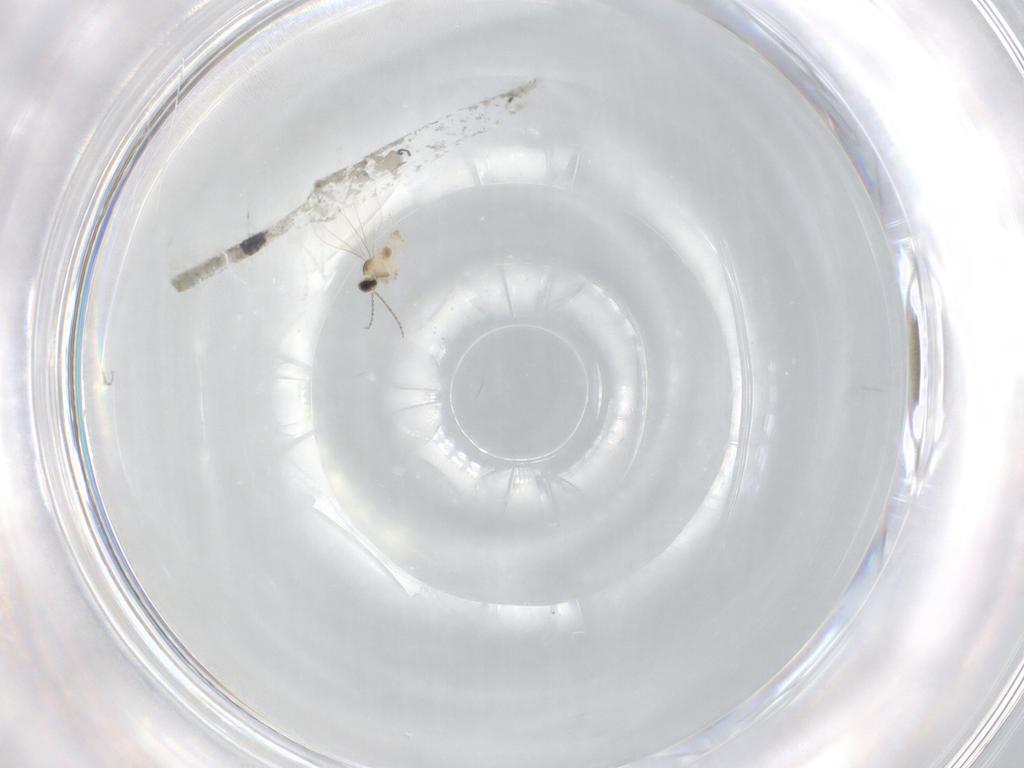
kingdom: Animalia
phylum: Arthropoda
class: Insecta
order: Diptera
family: Cecidomyiidae
